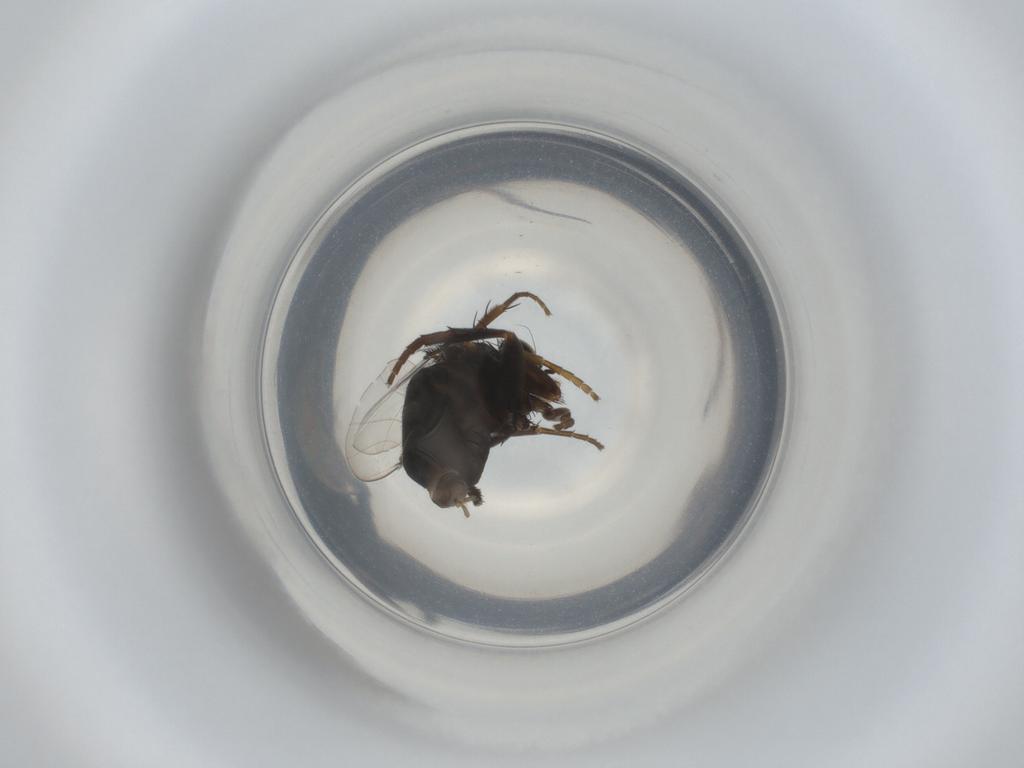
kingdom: Animalia
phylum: Arthropoda
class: Insecta
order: Diptera
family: Phoridae
